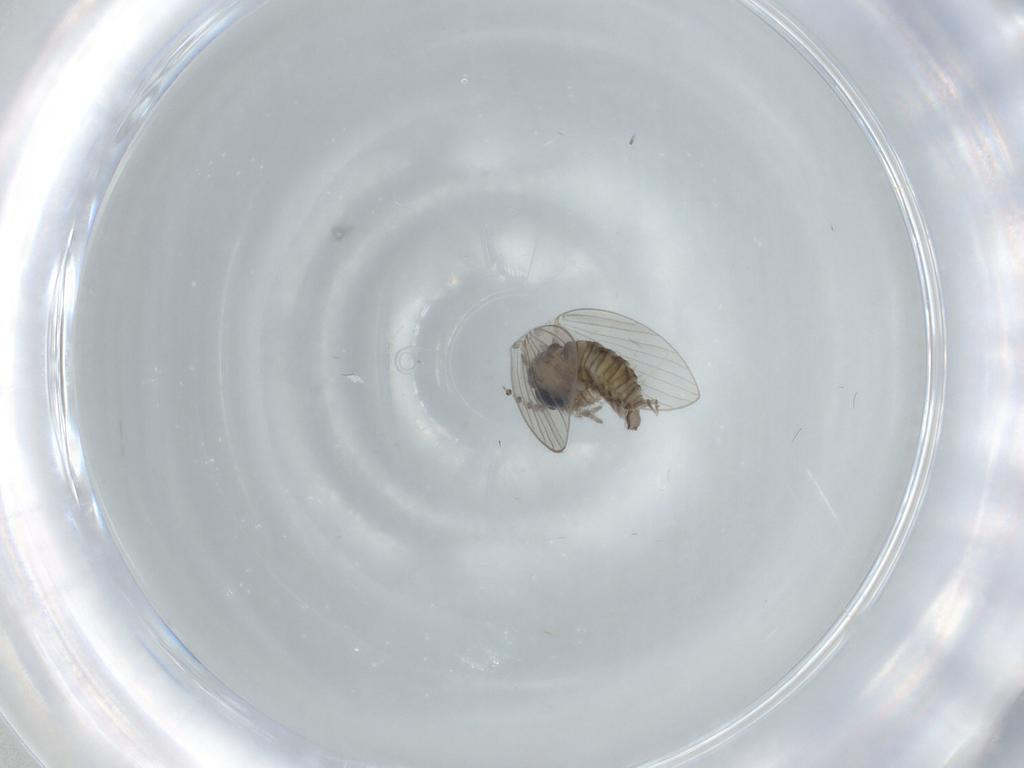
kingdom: Animalia
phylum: Arthropoda
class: Insecta
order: Diptera
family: Psychodidae
